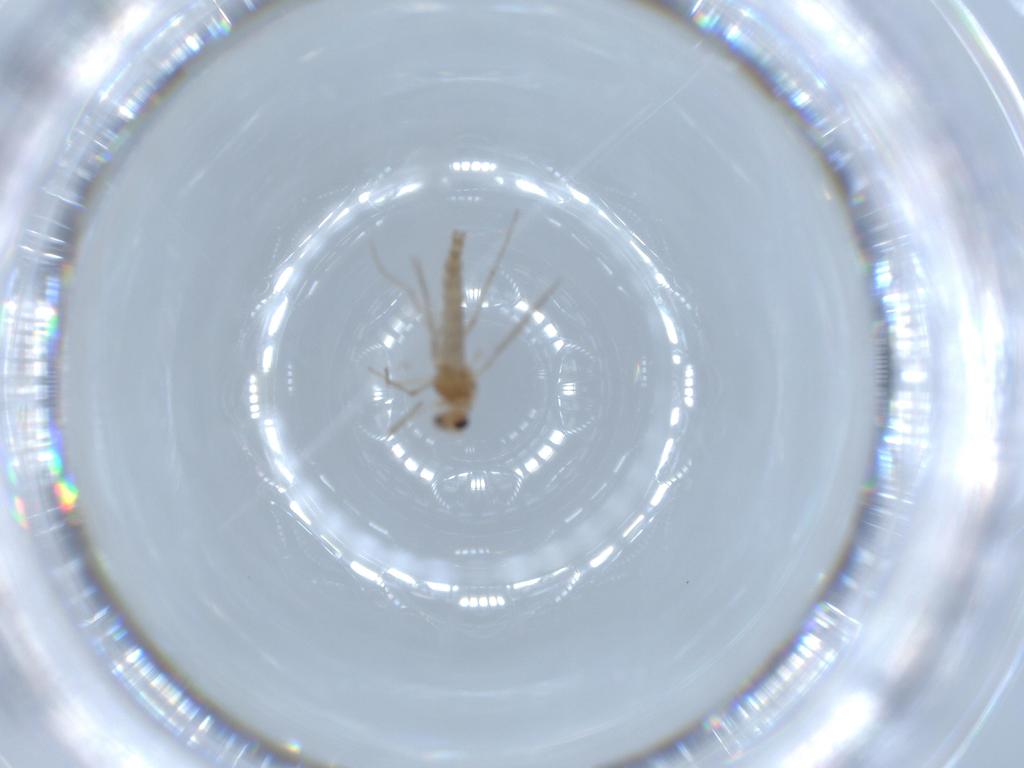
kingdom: Animalia
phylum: Arthropoda
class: Insecta
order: Diptera
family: Chironomidae
